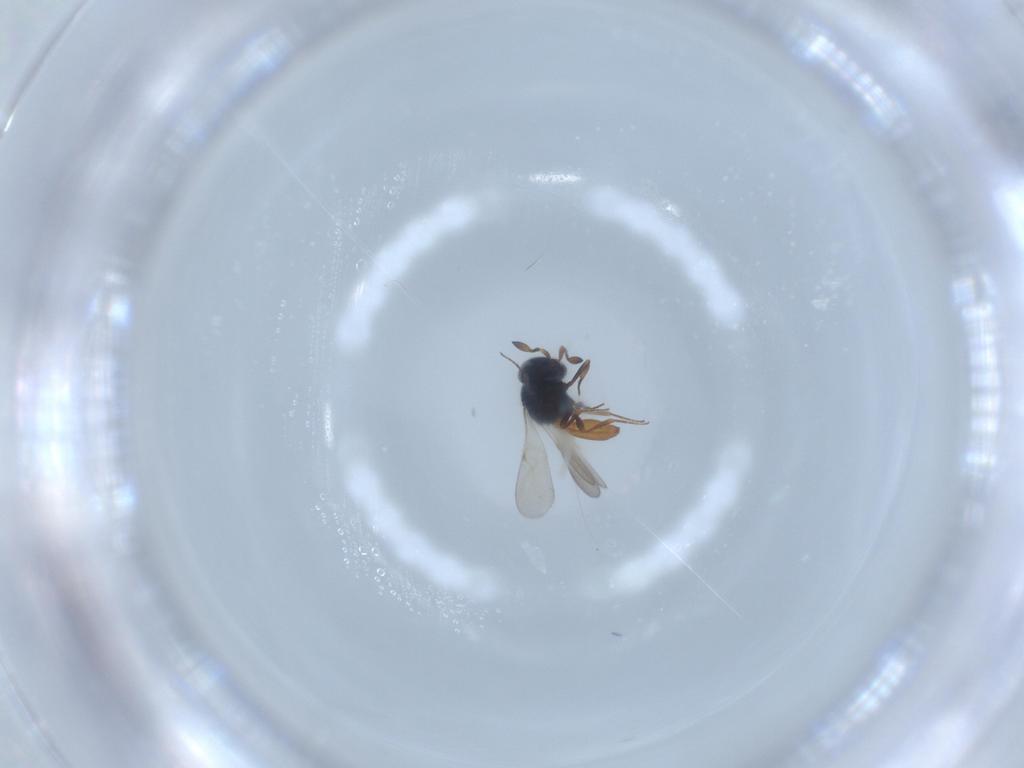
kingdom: Animalia
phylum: Arthropoda
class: Insecta
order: Hymenoptera
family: Scelionidae
